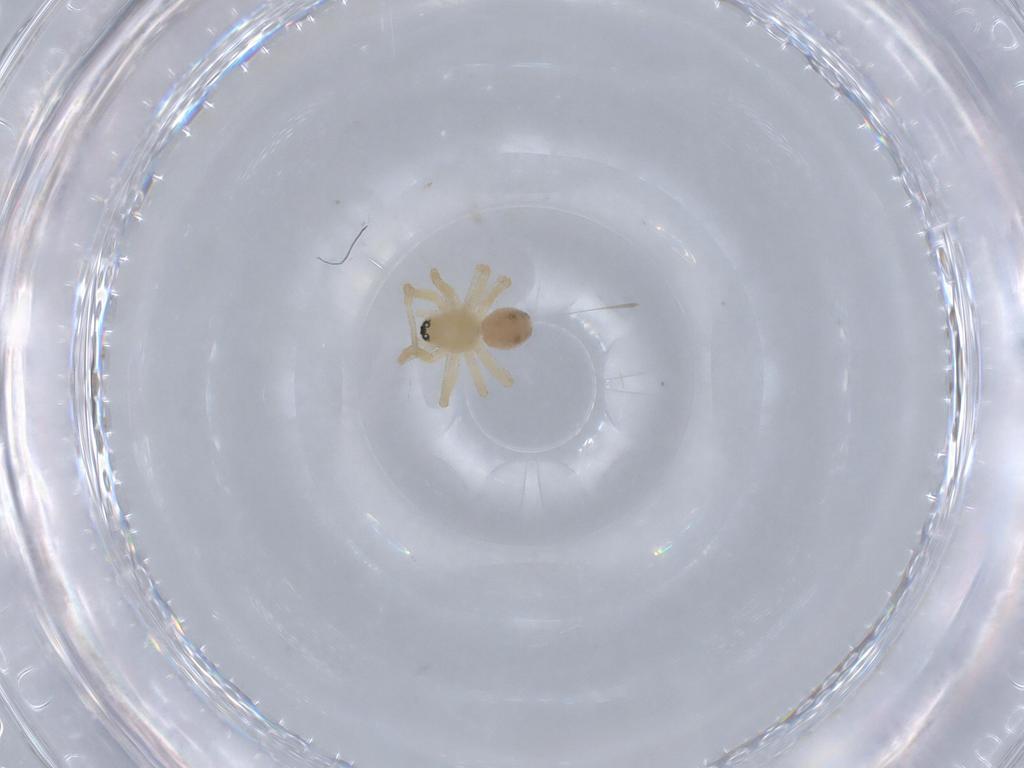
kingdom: Animalia
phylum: Arthropoda
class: Arachnida
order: Araneae
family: Linyphiidae
